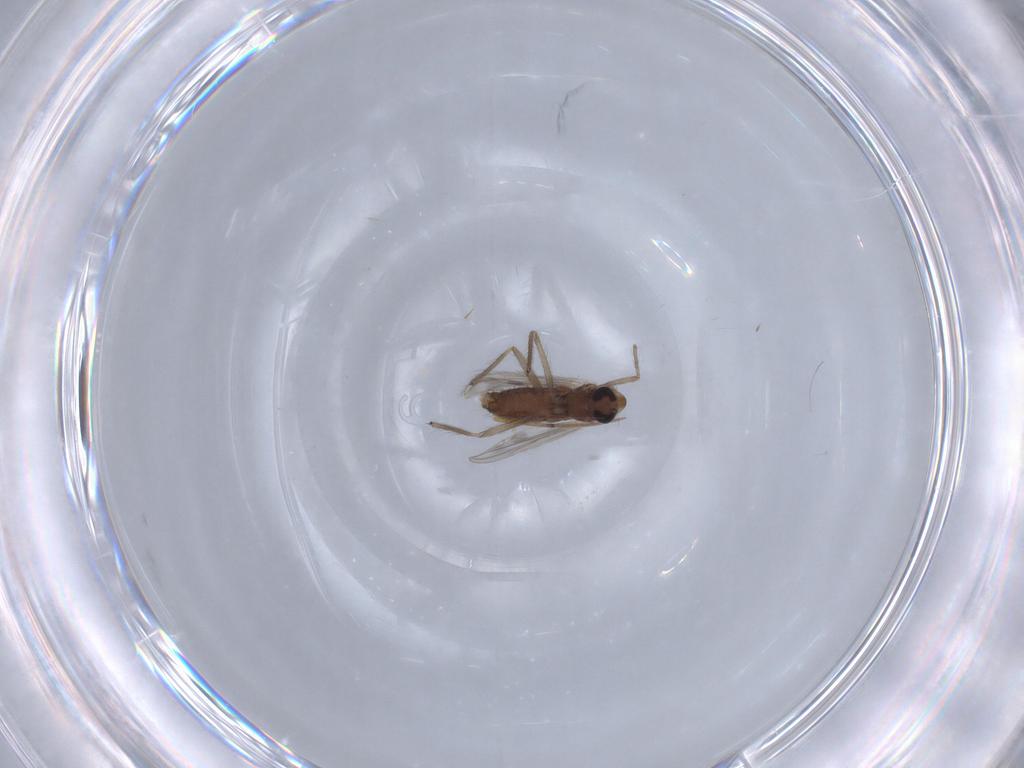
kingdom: Animalia
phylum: Arthropoda
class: Insecta
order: Diptera
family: Chironomidae
